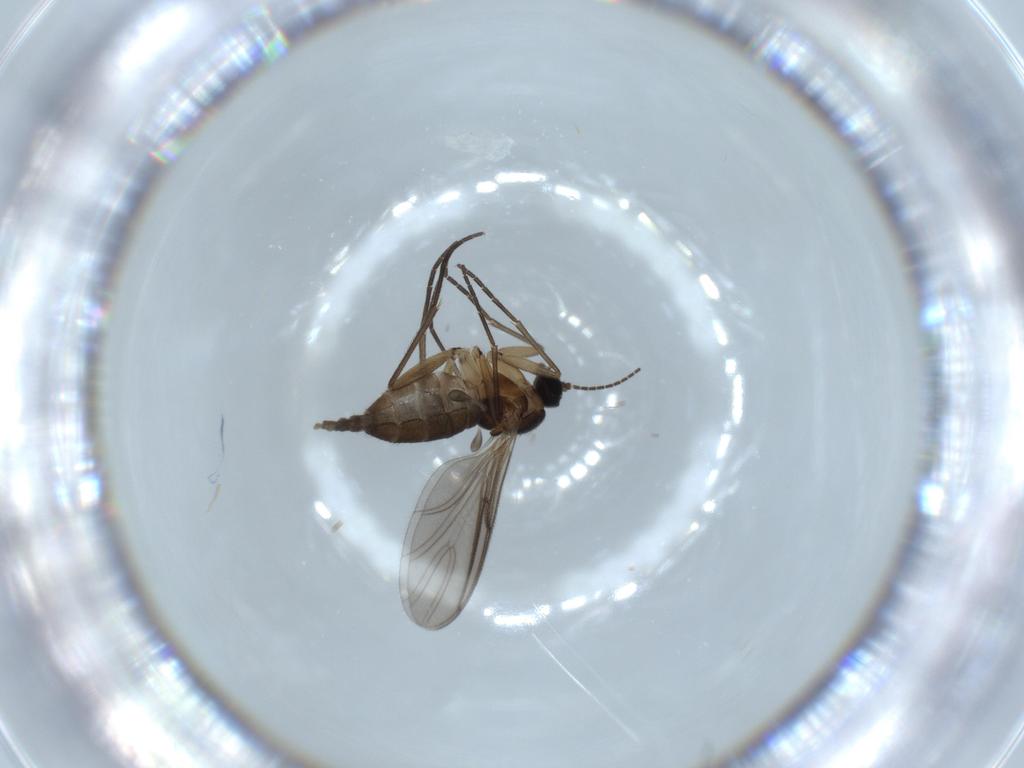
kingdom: Animalia
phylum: Arthropoda
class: Insecta
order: Diptera
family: Sciaridae
